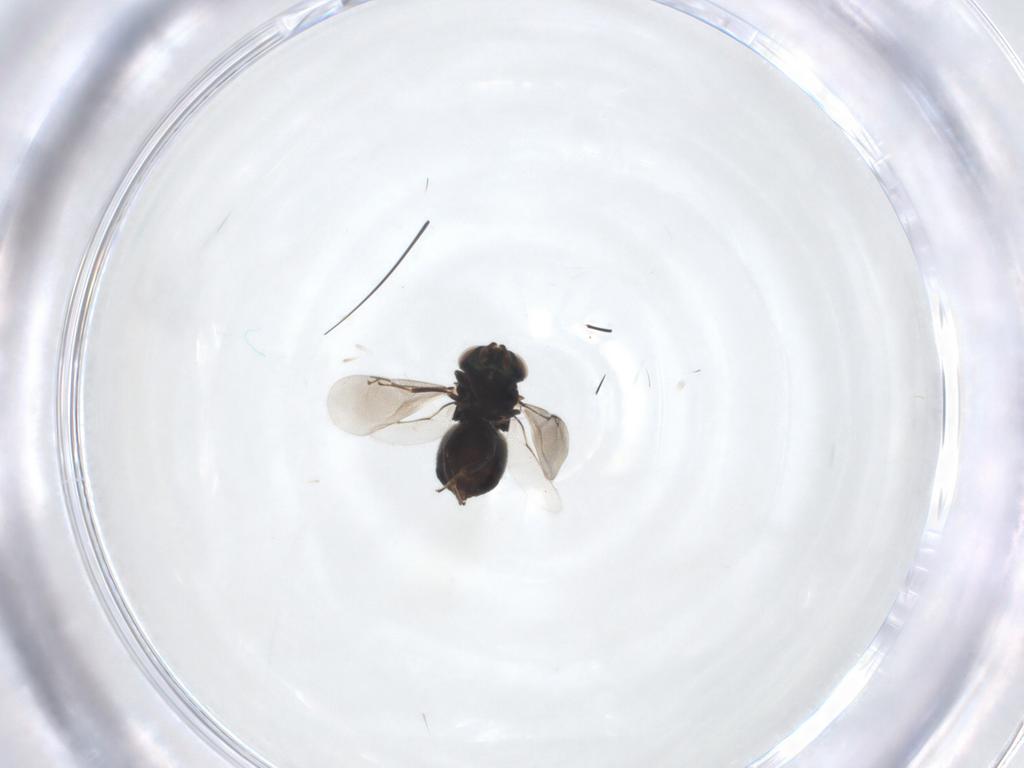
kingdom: Animalia
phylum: Arthropoda
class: Insecta
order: Hymenoptera
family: Eunotidae
